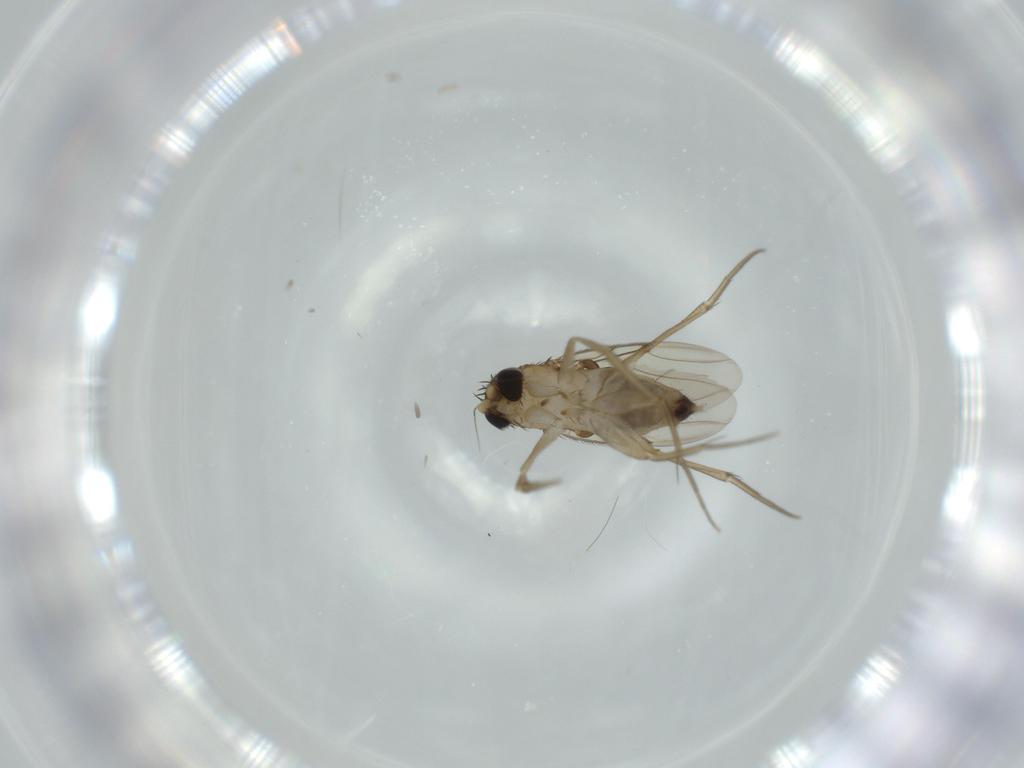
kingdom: Animalia
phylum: Arthropoda
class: Insecta
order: Diptera
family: Phoridae
